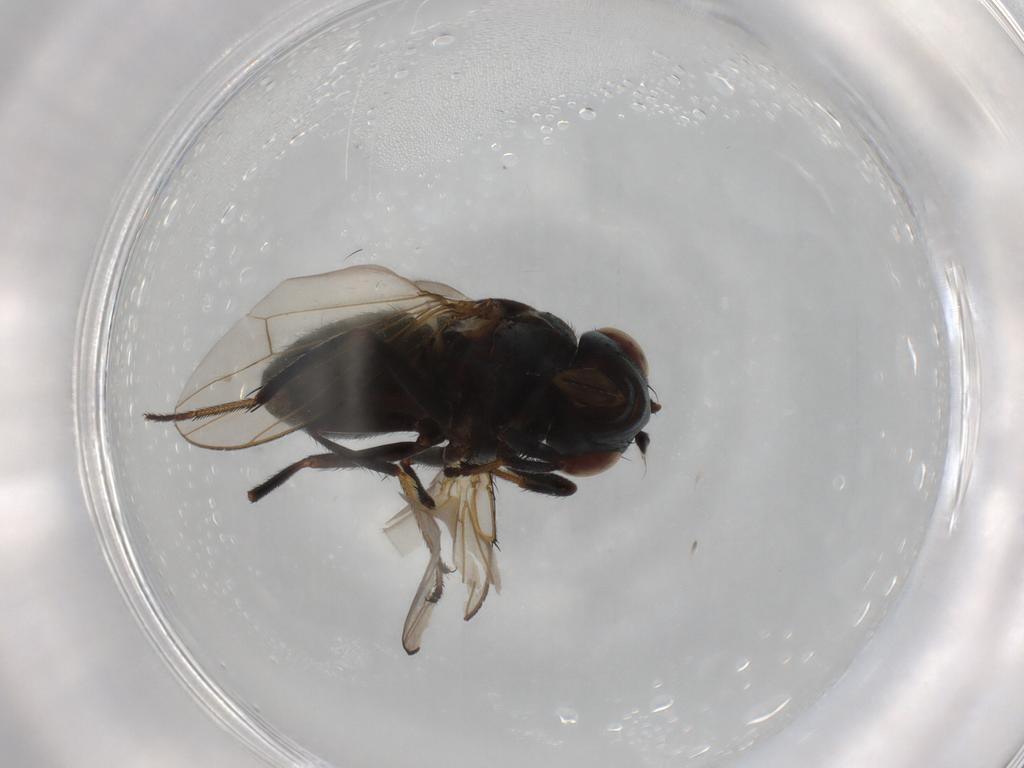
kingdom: Animalia
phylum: Arthropoda
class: Insecta
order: Diptera
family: Ephydridae
